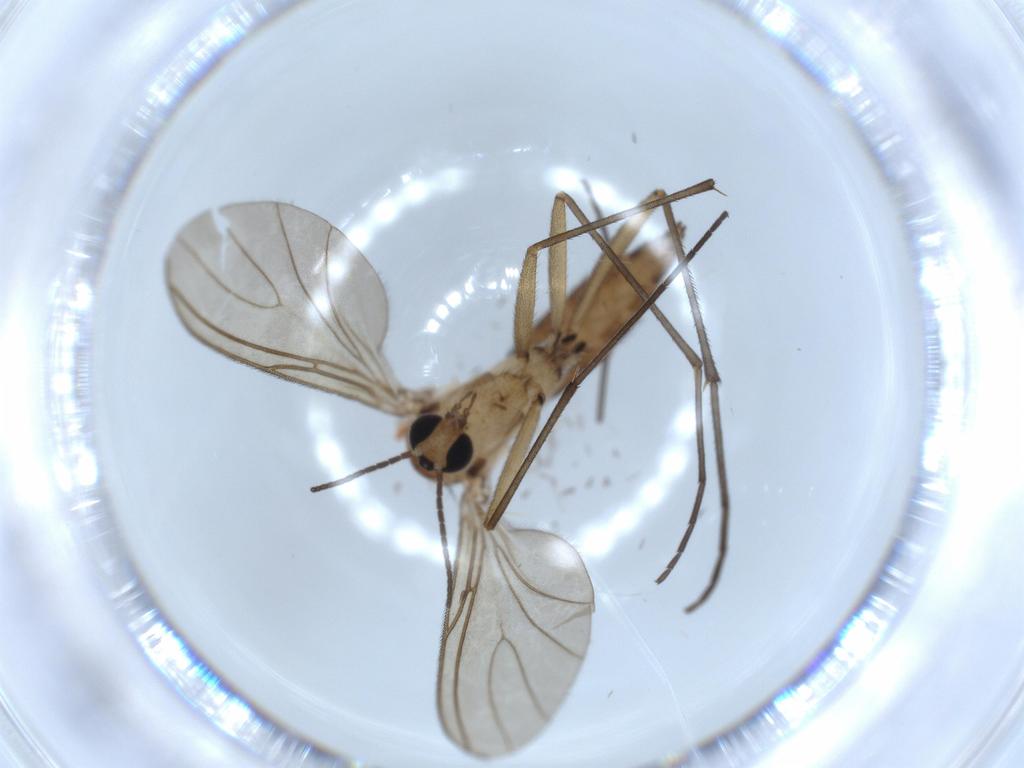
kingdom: Animalia
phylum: Arthropoda
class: Insecta
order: Diptera
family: Sciaridae
